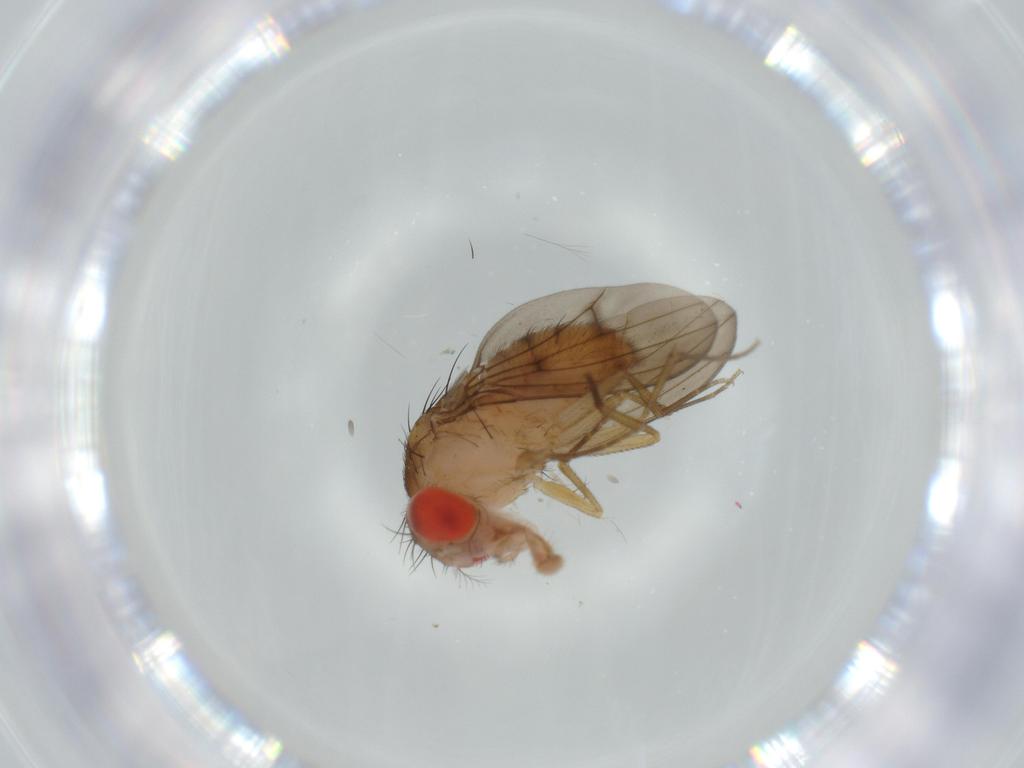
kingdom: Animalia
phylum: Arthropoda
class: Insecta
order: Diptera
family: Drosophilidae
